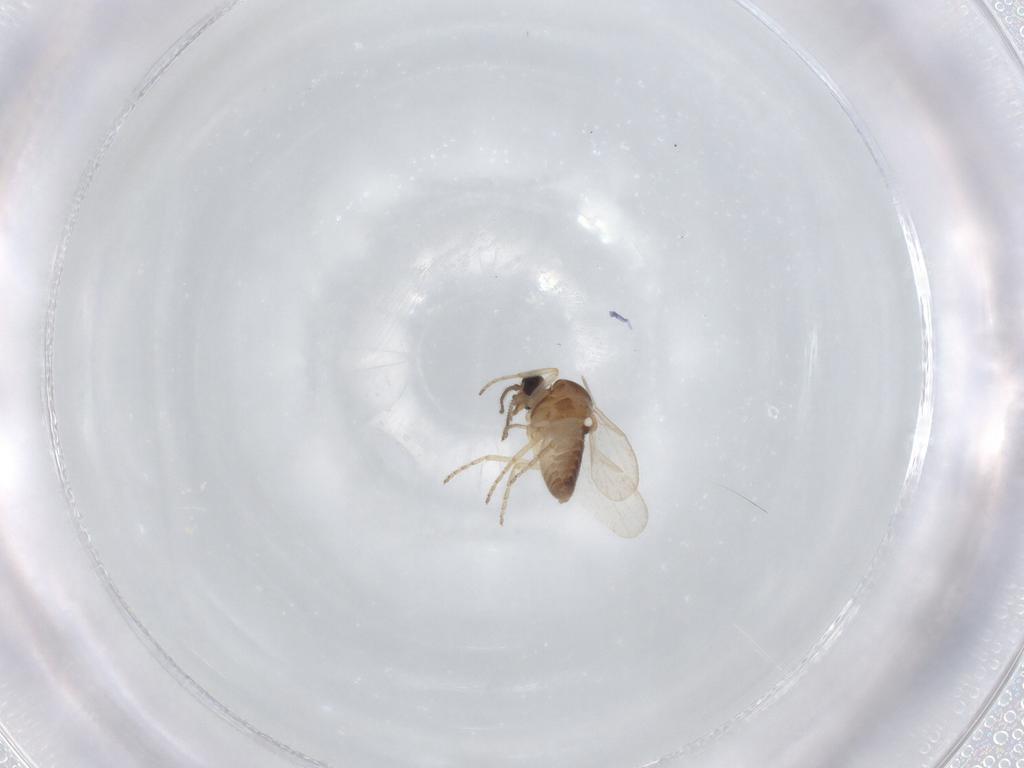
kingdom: Animalia
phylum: Arthropoda
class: Insecta
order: Diptera
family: Ceratopogonidae
